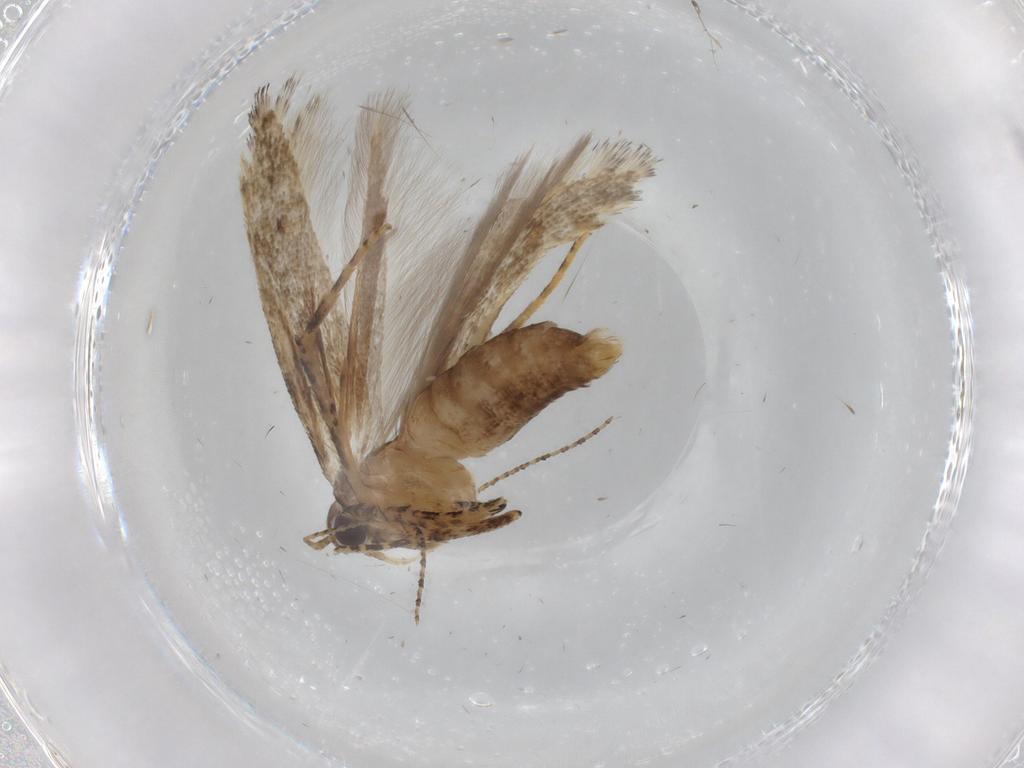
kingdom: Animalia
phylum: Arthropoda
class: Insecta
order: Lepidoptera
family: Gelechiidae
